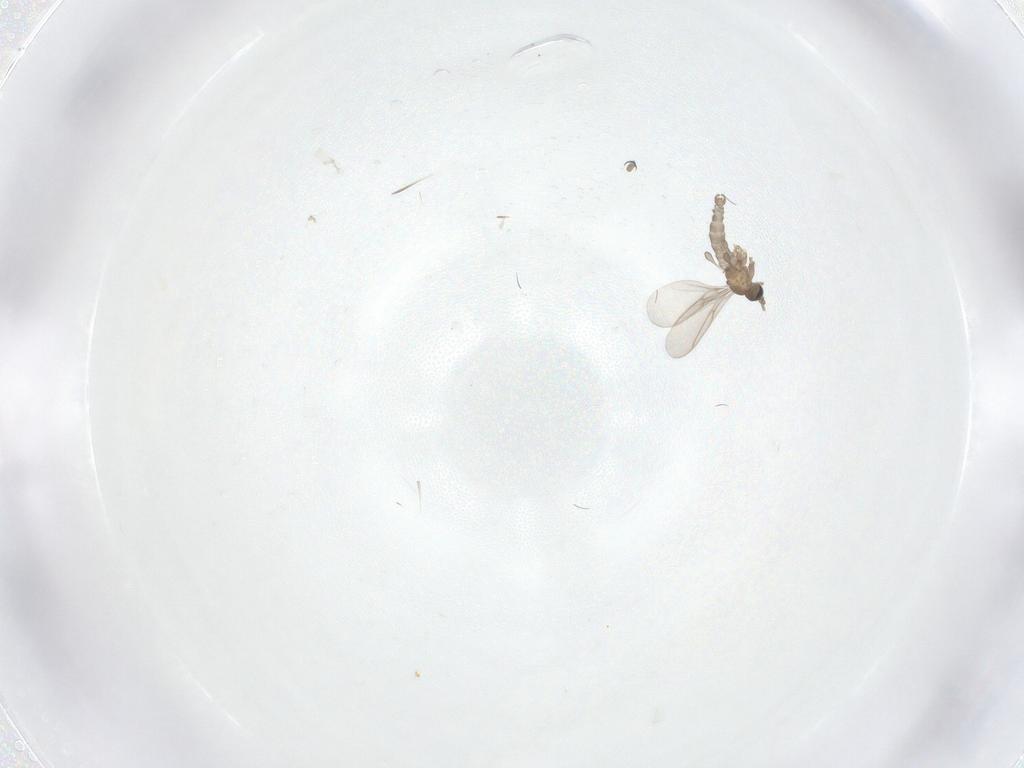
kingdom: Animalia
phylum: Arthropoda
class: Insecta
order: Diptera
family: Sciaridae
